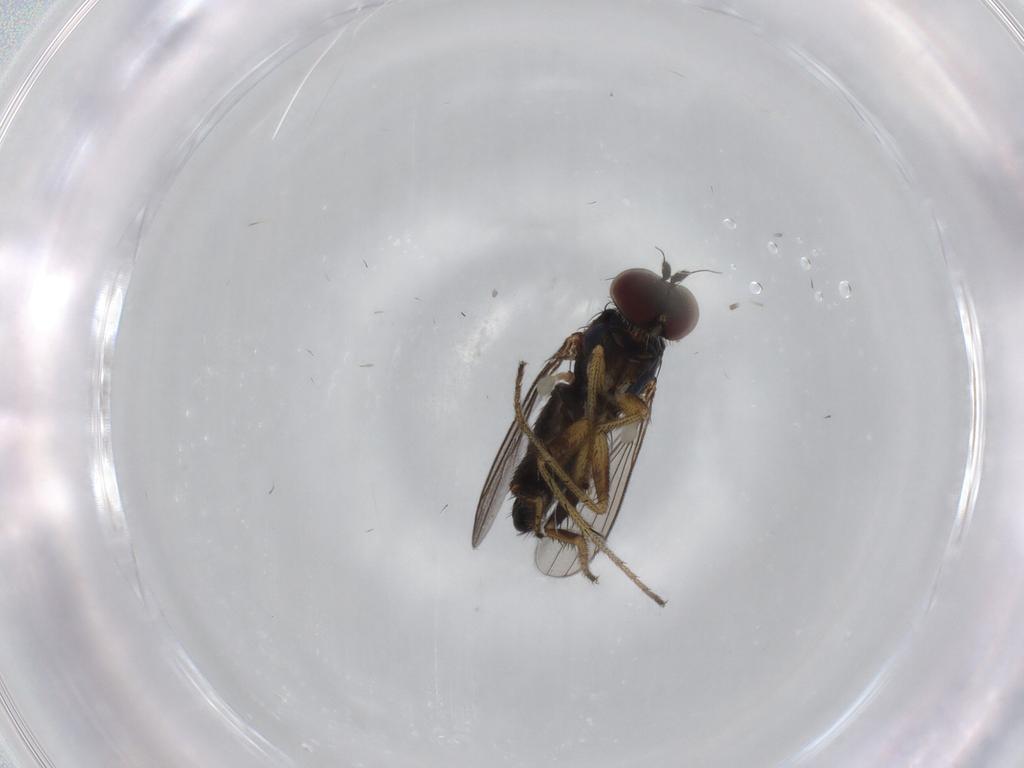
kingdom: Animalia
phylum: Arthropoda
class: Insecta
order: Diptera
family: Dolichopodidae
